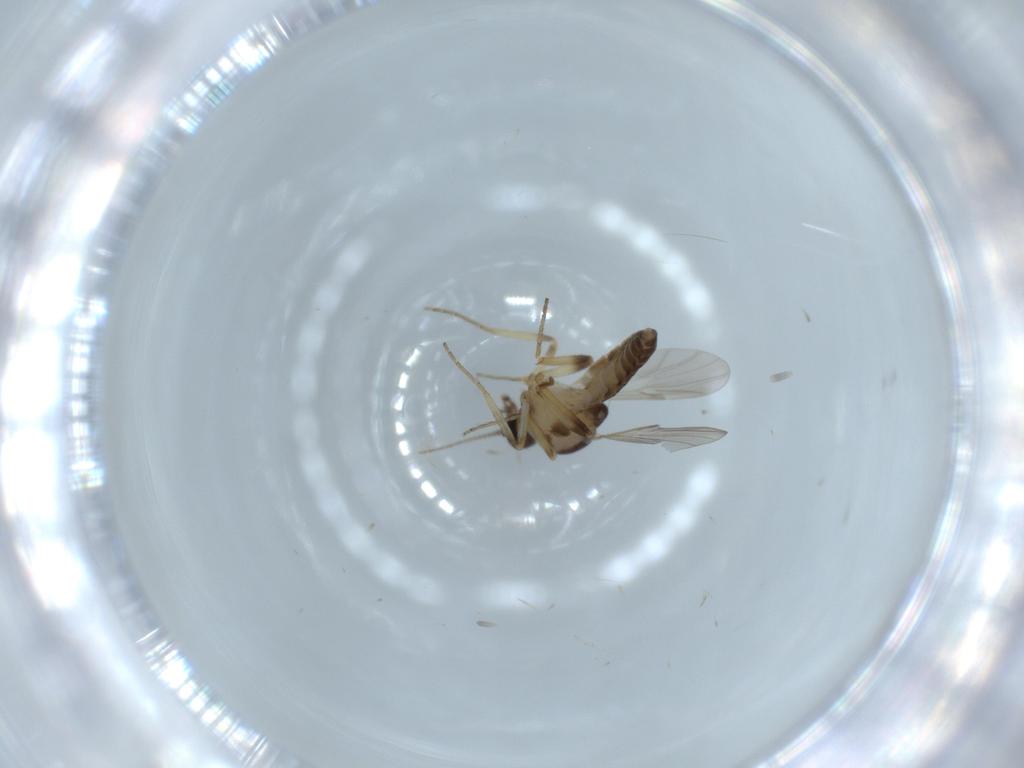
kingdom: Animalia
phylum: Arthropoda
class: Insecta
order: Diptera
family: Ceratopogonidae
